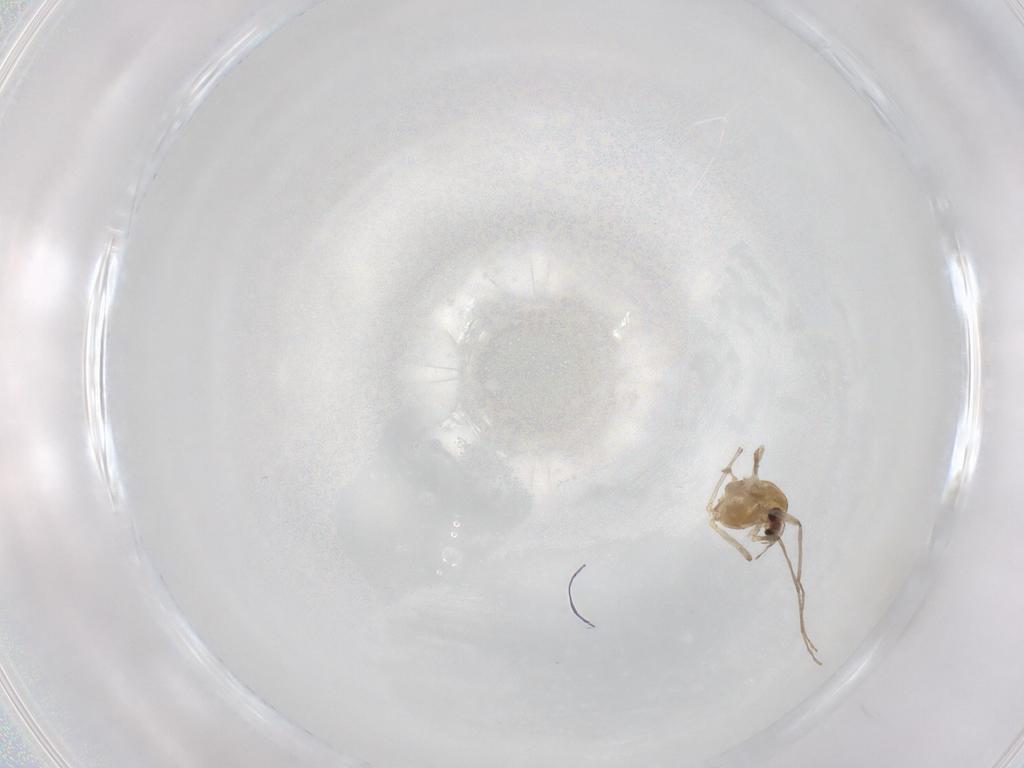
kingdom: Animalia
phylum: Arthropoda
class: Insecta
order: Diptera
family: Chironomidae
